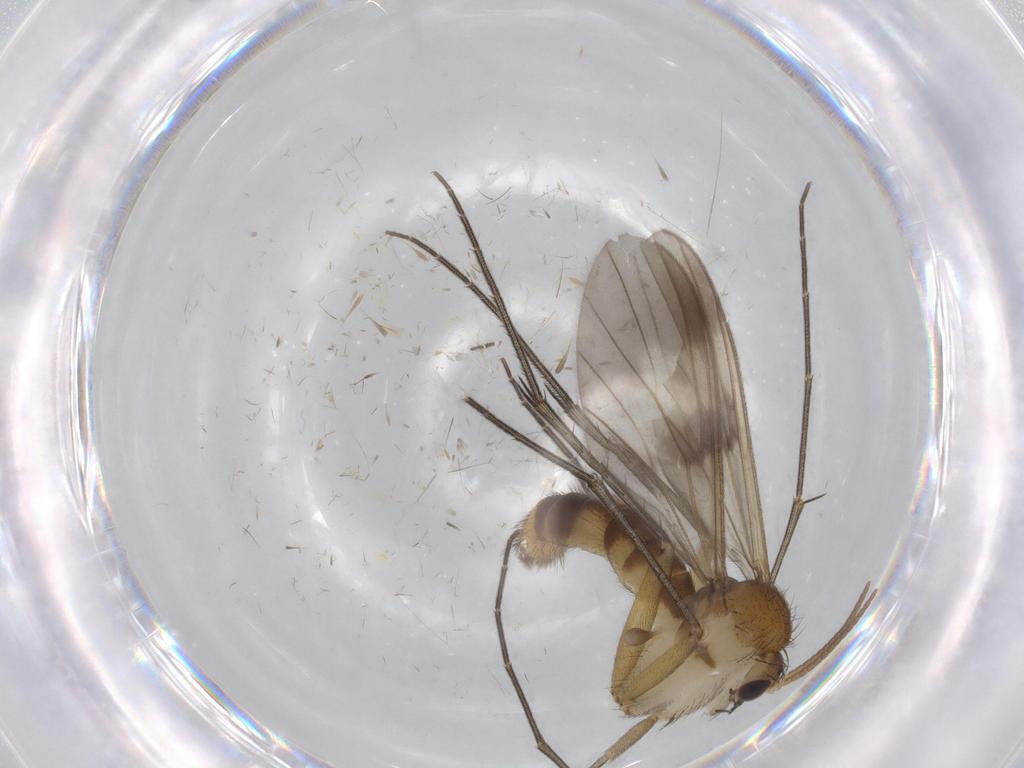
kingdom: Animalia
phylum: Arthropoda
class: Insecta
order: Diptera
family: Mycetophilidae
